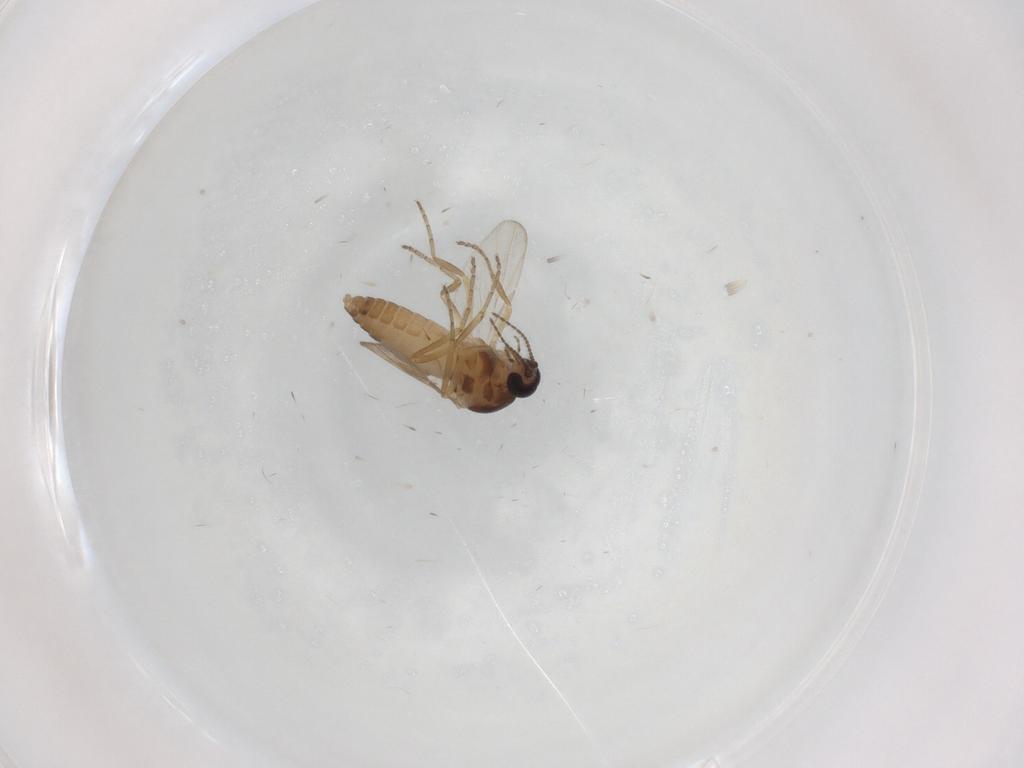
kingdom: Animalia
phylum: Arthropoda
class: Insecta
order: Diptera
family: Ceratopogonidae
